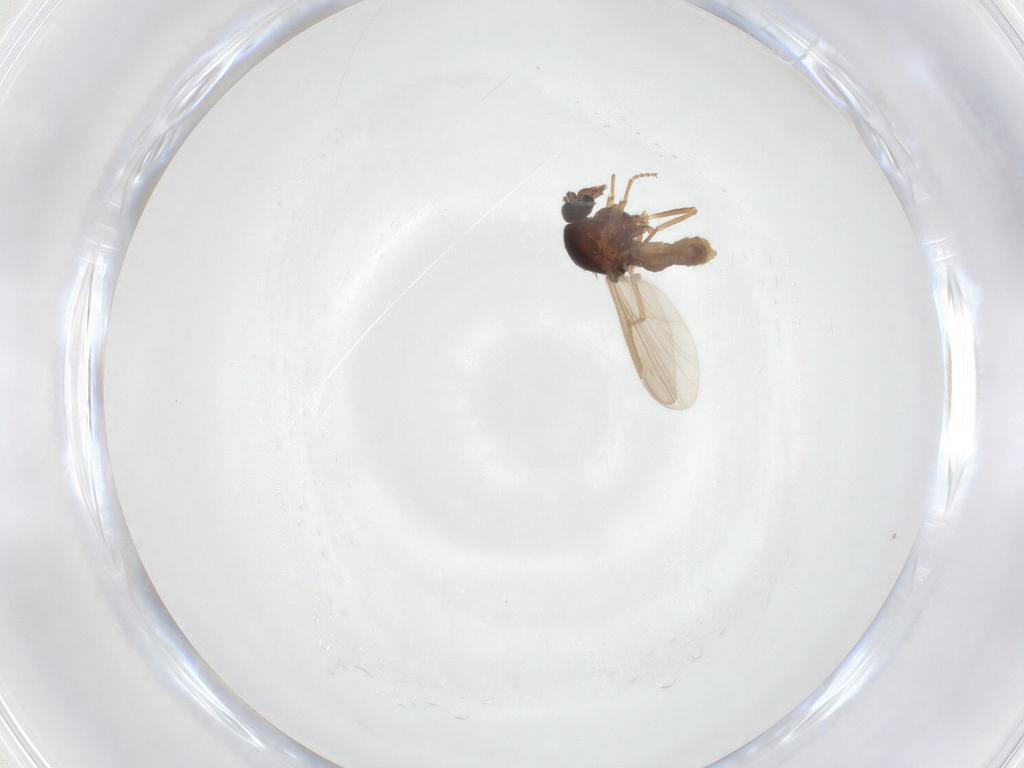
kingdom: Animalia
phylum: Arthropoda
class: Insecta
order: Diptera
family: Ceratopogonidae
